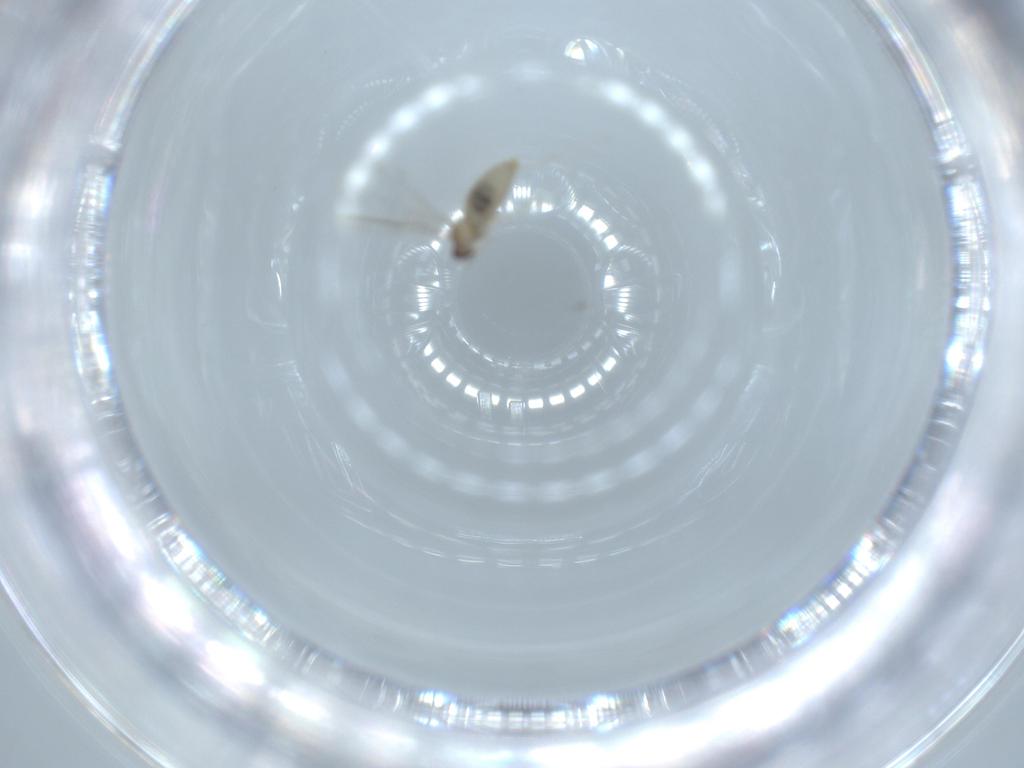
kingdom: Animalia
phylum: Arthropoda
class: Insecta
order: Diptera
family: Cecidomyiidae
